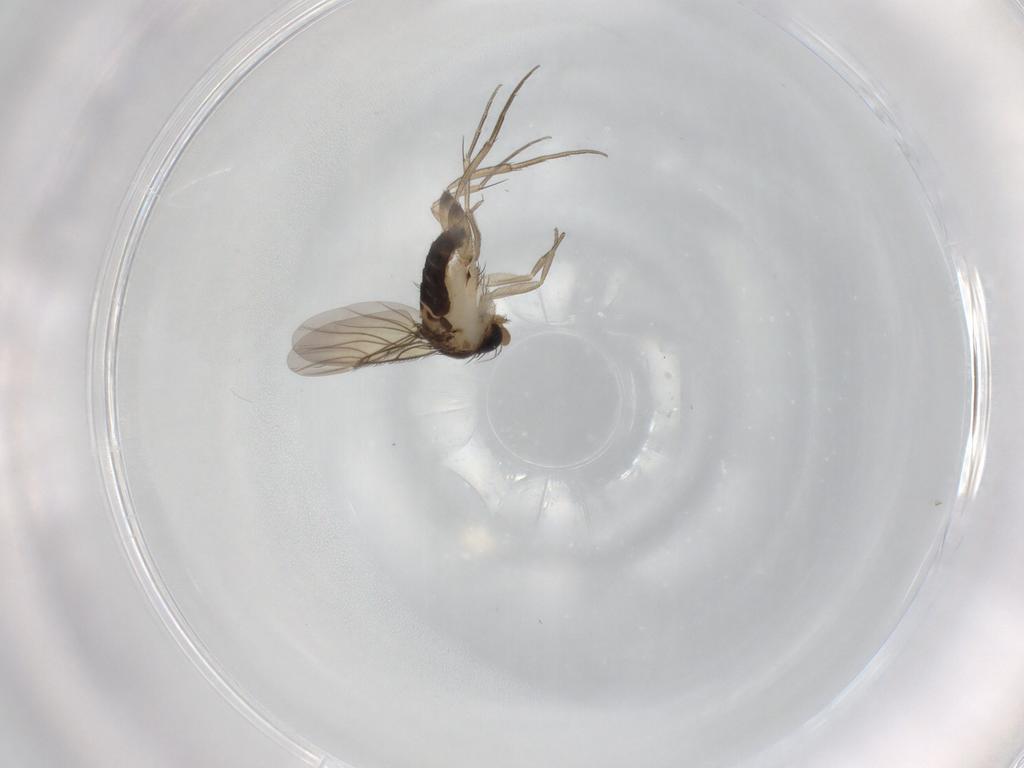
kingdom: Animalia
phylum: Arthropoda
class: Insecta
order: Diptera
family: Phoridae
